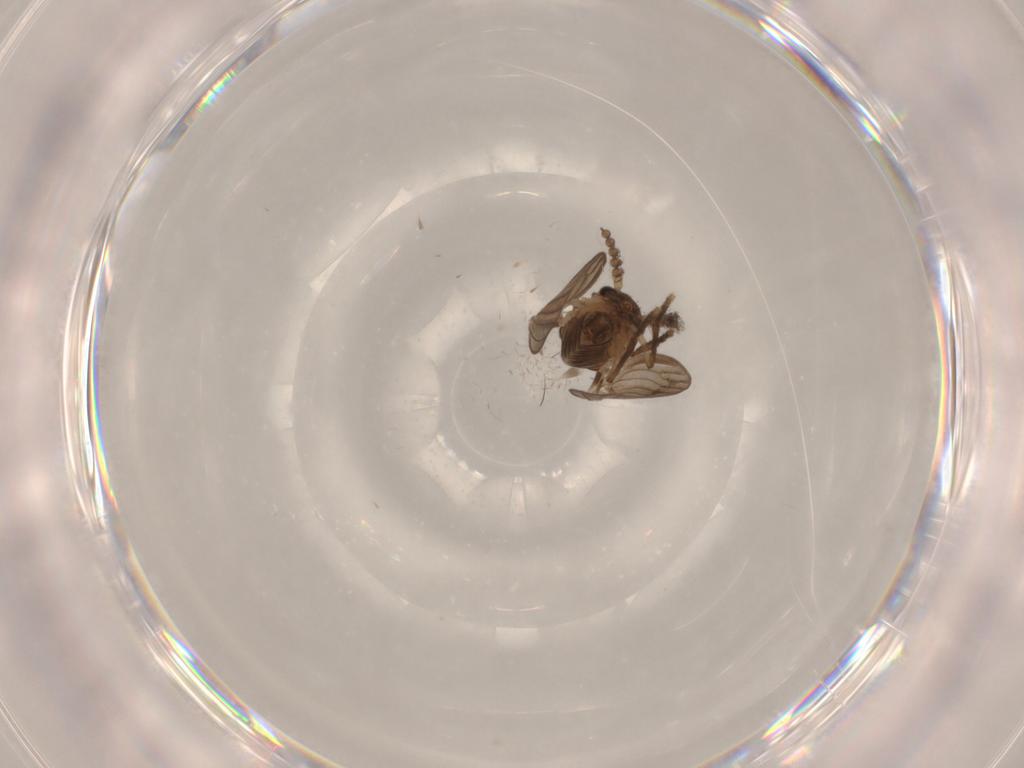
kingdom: Animalia
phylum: Arthropoda
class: Insecta
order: Diptera
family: Psychodidae
